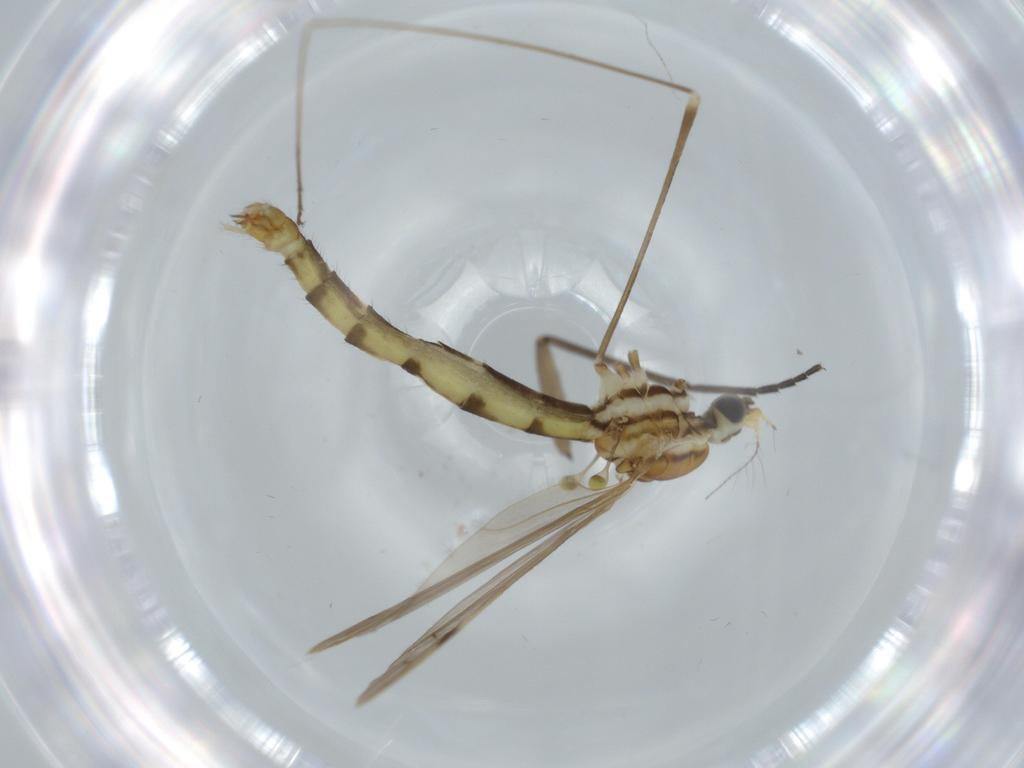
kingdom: Animalia
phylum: Arthropoda
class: Insecta
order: Diptera
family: Sciaridae
